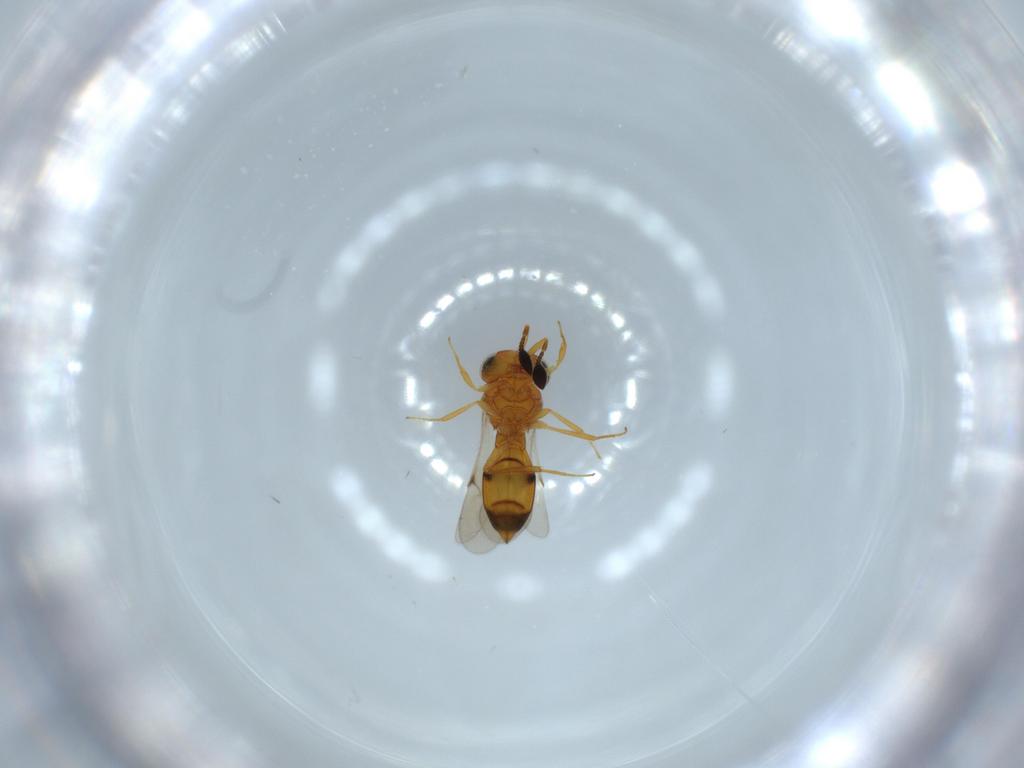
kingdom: Animalia
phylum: Arthropoda
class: Insecta
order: Hymenoptera
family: Scelionidae
